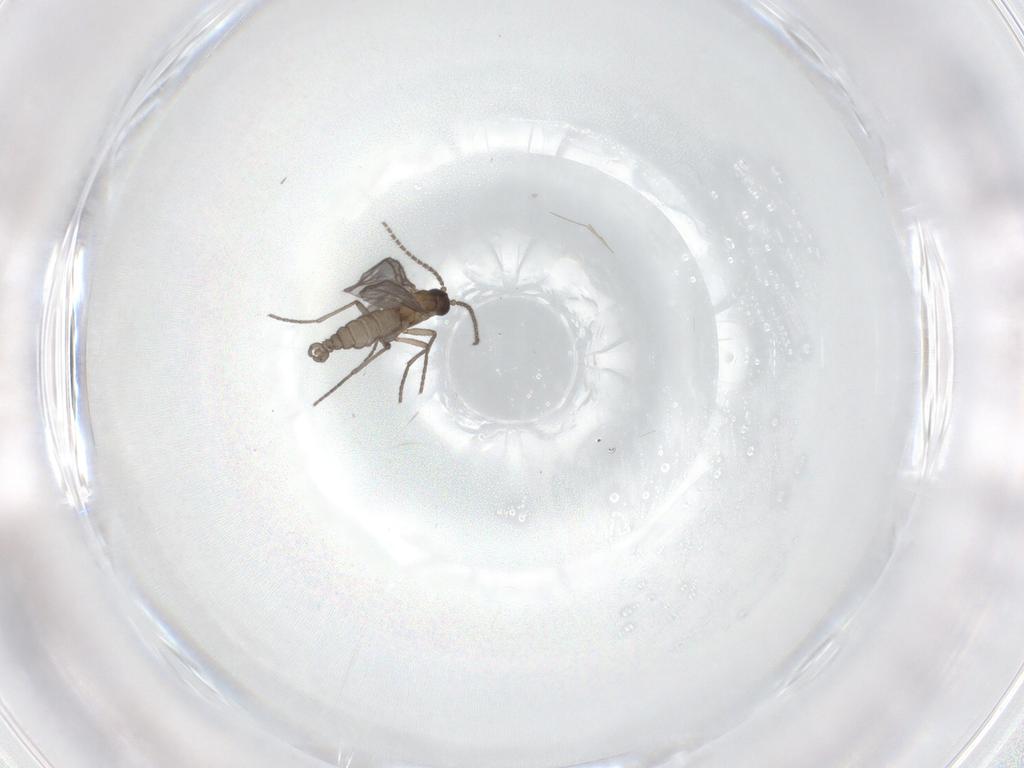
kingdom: Animalia
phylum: Arthropoda
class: Insecta
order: Diptera
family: Sciaridae
